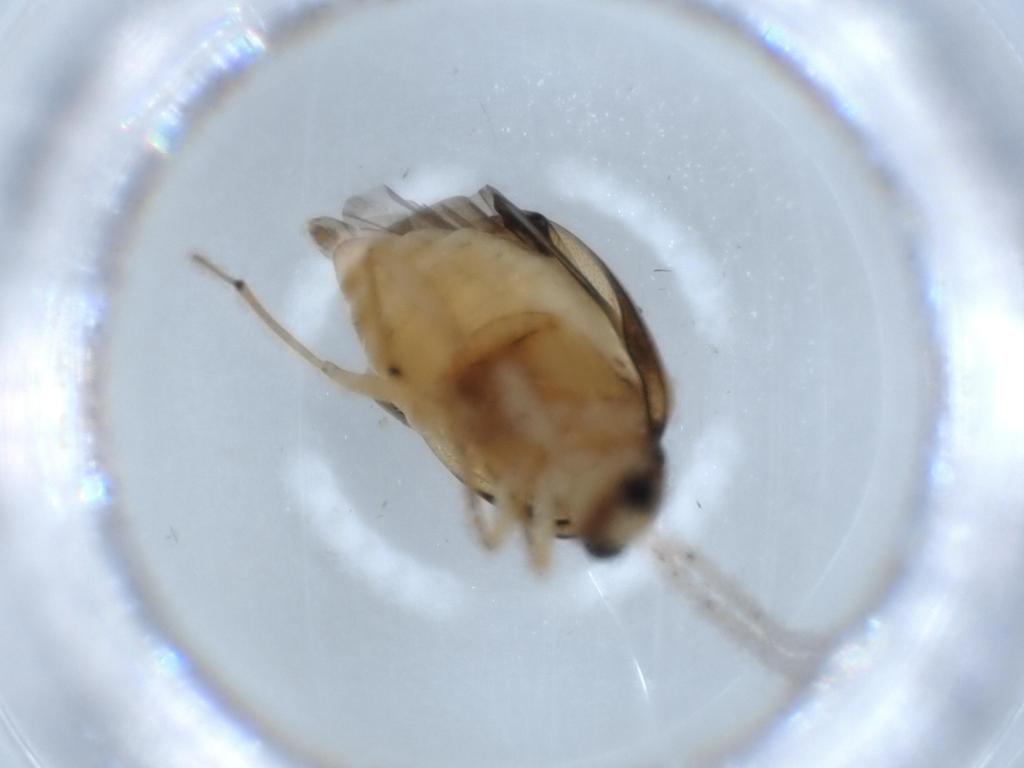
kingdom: Animalia
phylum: Arthropoda
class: Insecta
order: Coleoptera
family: Chrysomelidae
